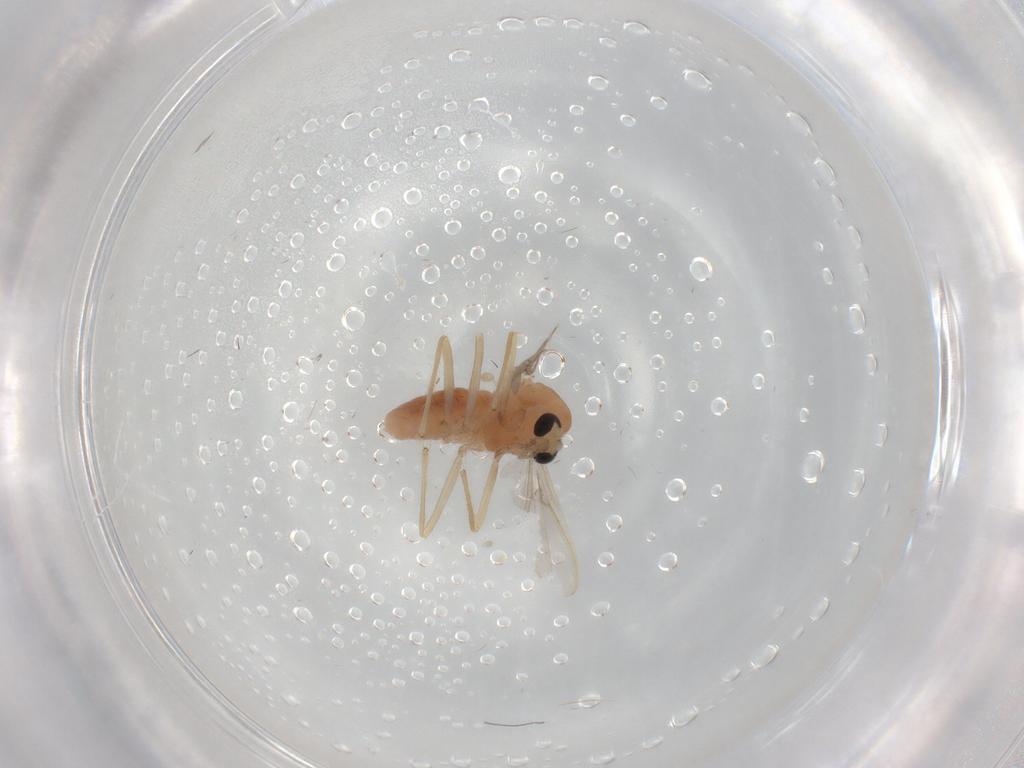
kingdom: Animalia
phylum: Arthropoda
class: Insecta
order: Diptera
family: Chironomidae
